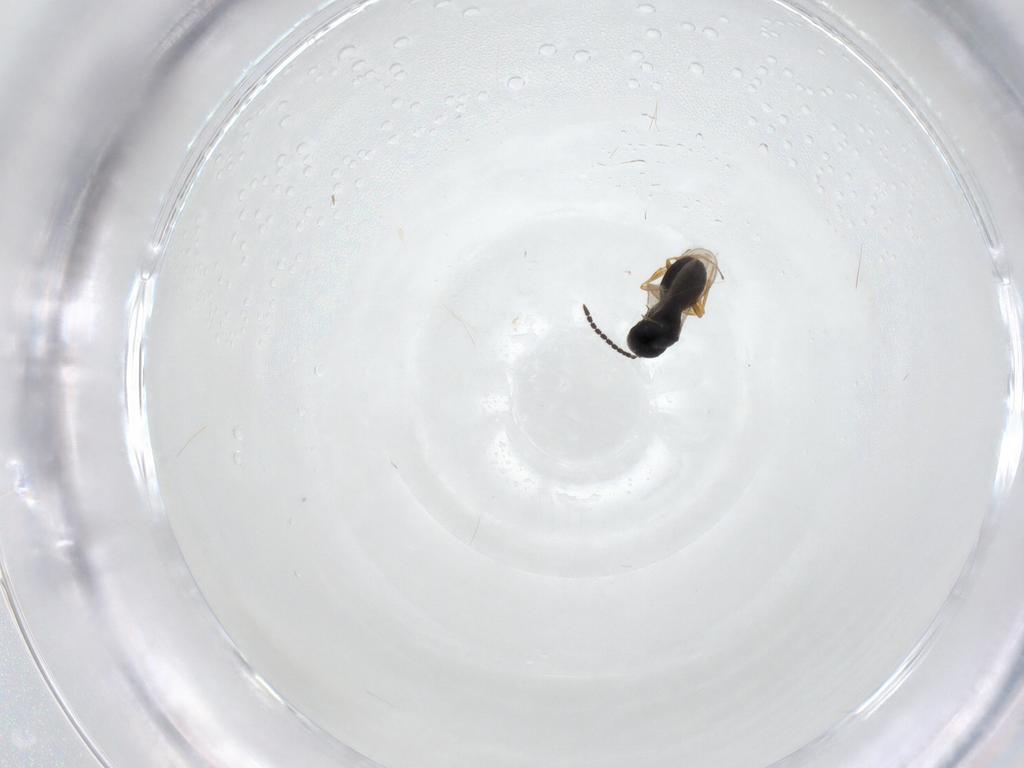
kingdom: Animalia
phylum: Arthropoda
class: Insecta
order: Hymenoptera
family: Scelionidae
